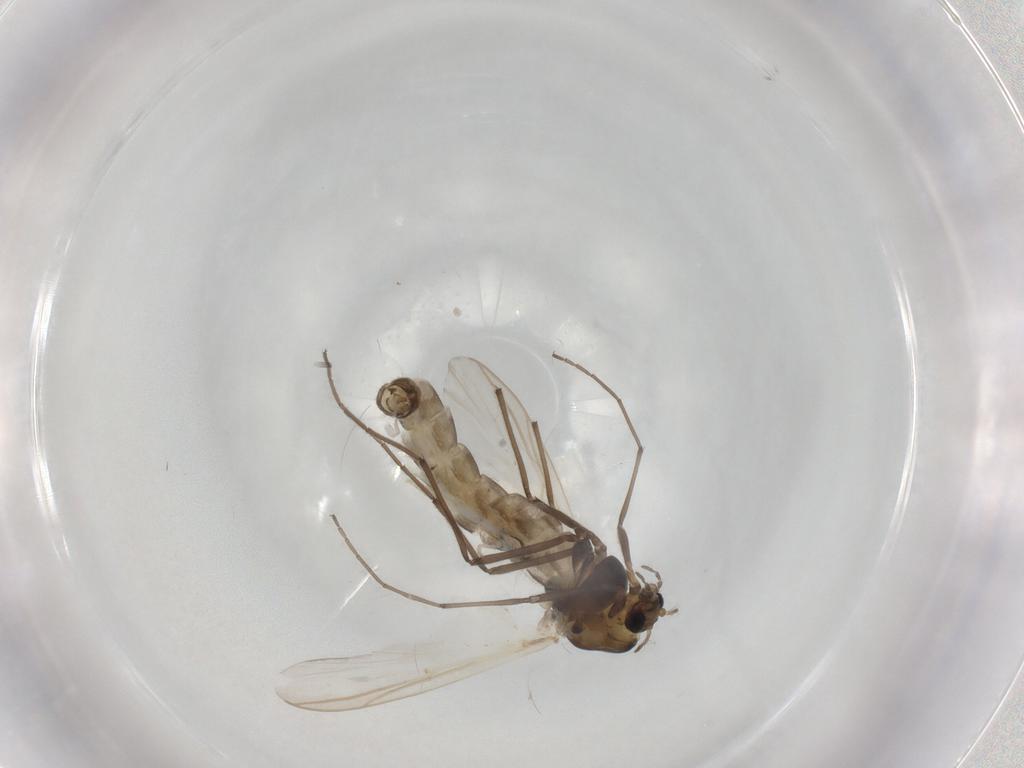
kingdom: Animalia
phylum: Arthropoda
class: Insecta
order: Diptera
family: Chironomidae
